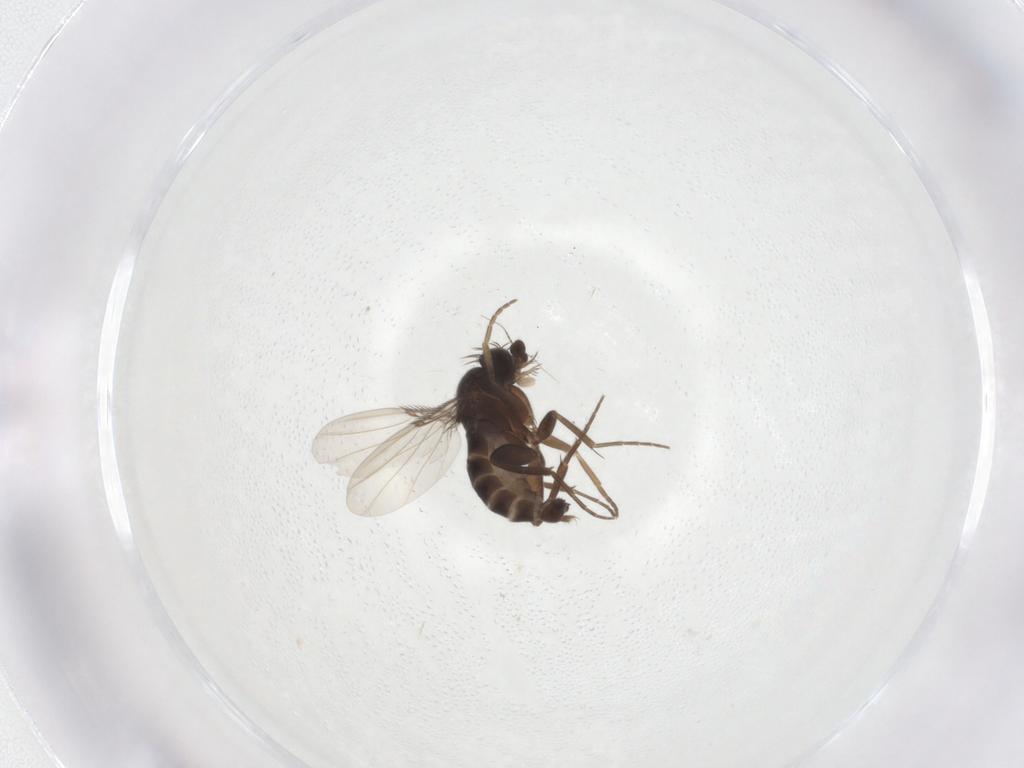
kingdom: Animalia
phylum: Arthropoda
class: Insecta
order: Diptera
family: Phoridae
